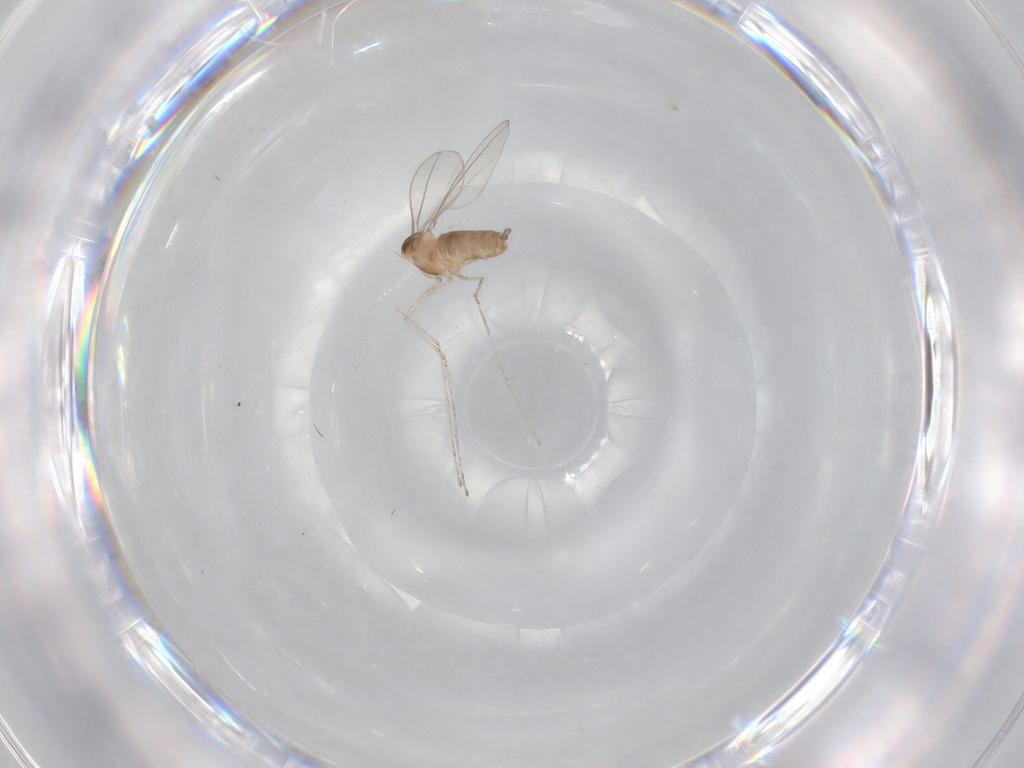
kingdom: Animalia
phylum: Arthropoda
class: Insecta
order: Diptera
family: Cecidomyiidae
